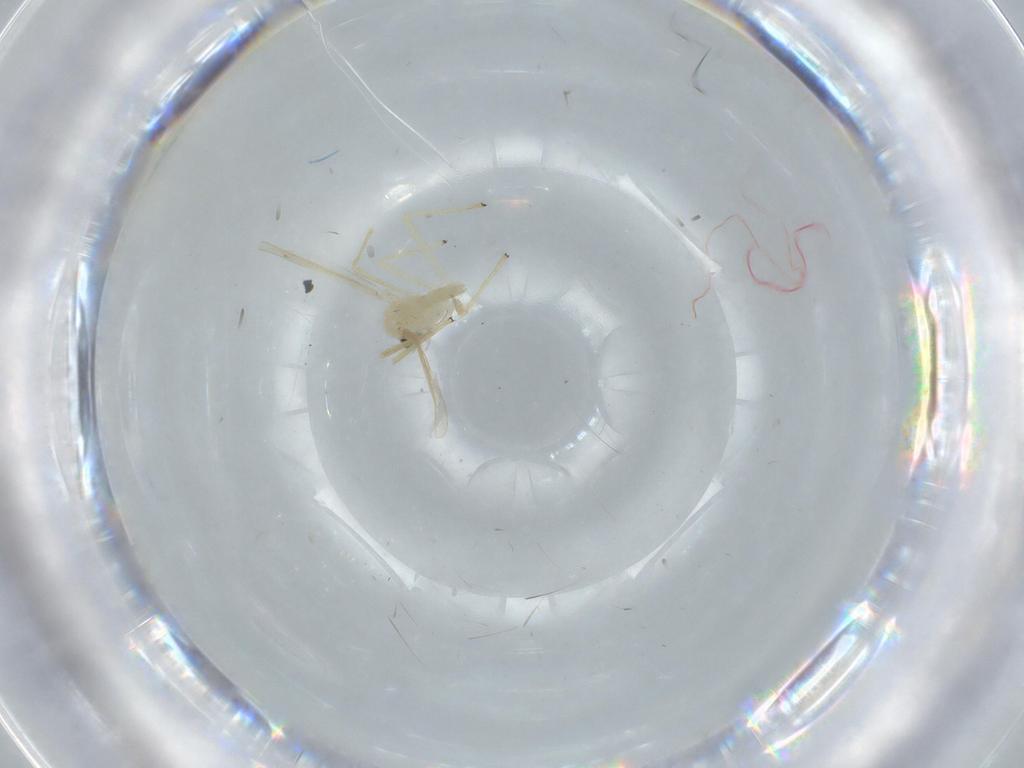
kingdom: Animalia
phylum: Arthropoda
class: Insecta
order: Diptera
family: Chironomidae
